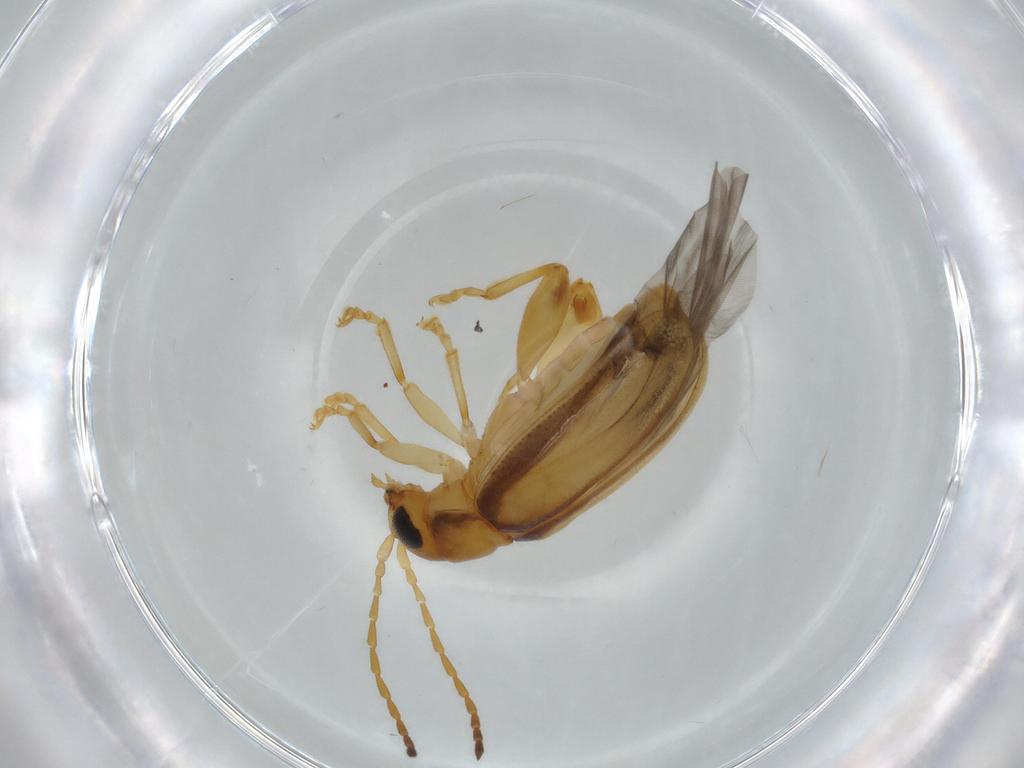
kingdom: Animalia
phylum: Arthropoda
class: Insecta
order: Coleoptera
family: Chrysomelidae
